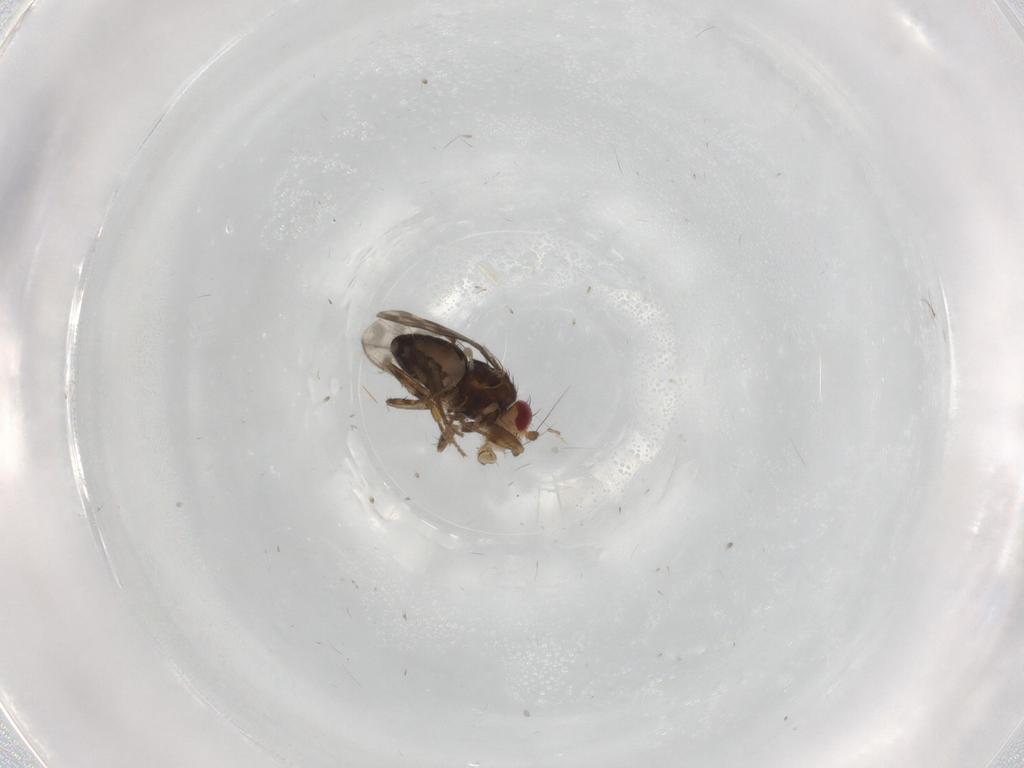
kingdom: Animalia
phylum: Arthropoda
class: Insecta
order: Diptera
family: Sphaeroceridae
